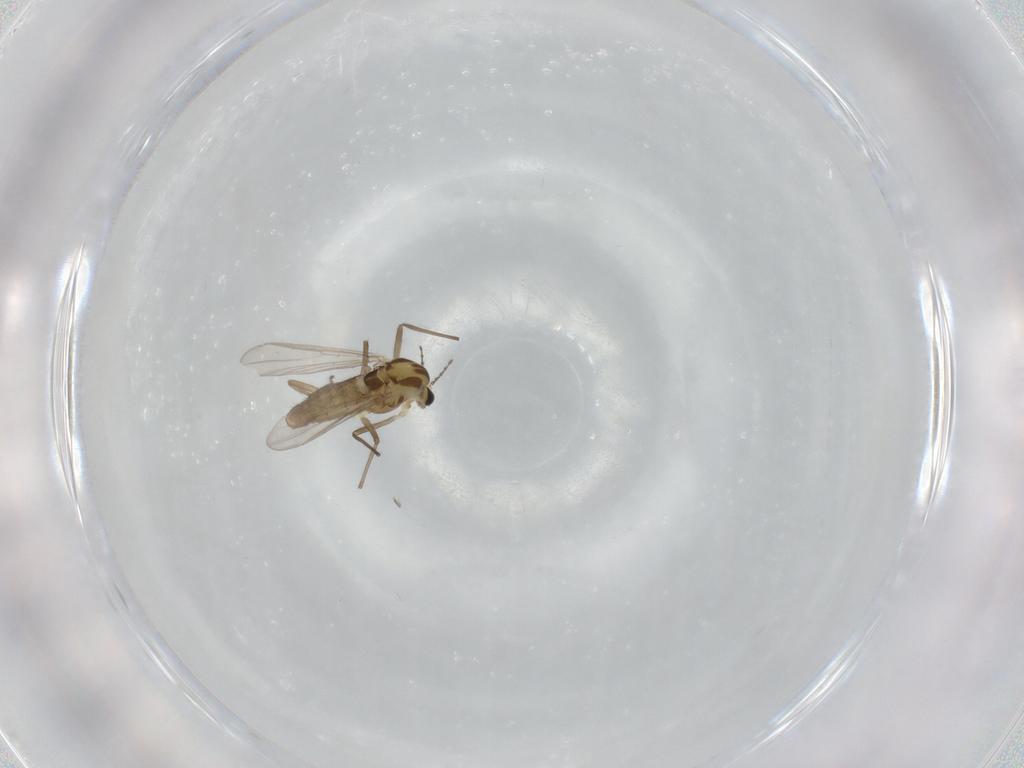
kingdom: Animalia
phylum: Arthropoda
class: Insecta
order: Diptera
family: Chironomidae
